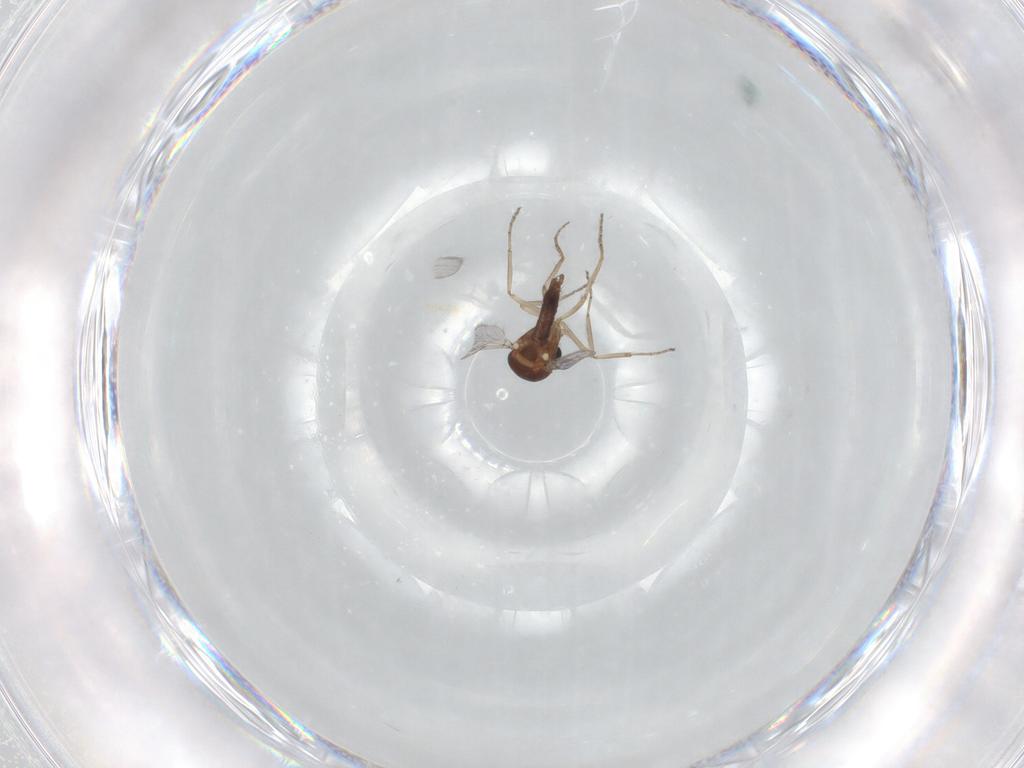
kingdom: Animalia
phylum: Arthropoda
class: Insecta
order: Diptera
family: Ceratopogonidae
